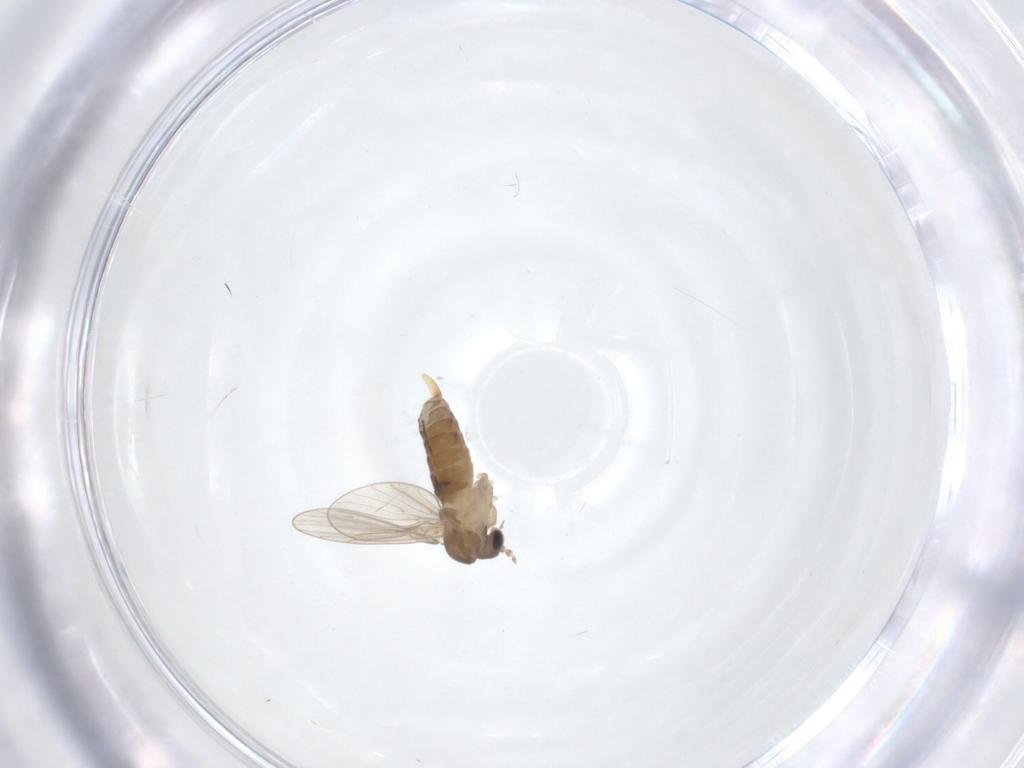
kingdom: Animalia
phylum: Arthropoda
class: Insecta
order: Diptera
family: Psychodidae
